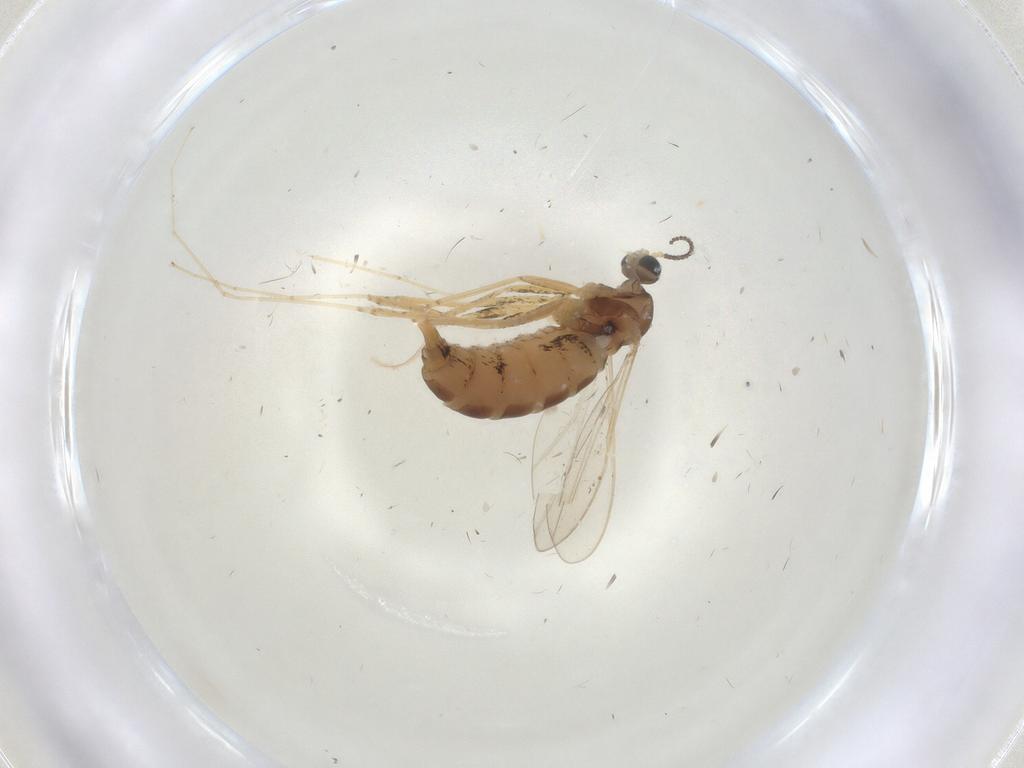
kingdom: Animalia
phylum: Arthropoda
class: Insecta
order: Diptera
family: Cecidomyiidae
